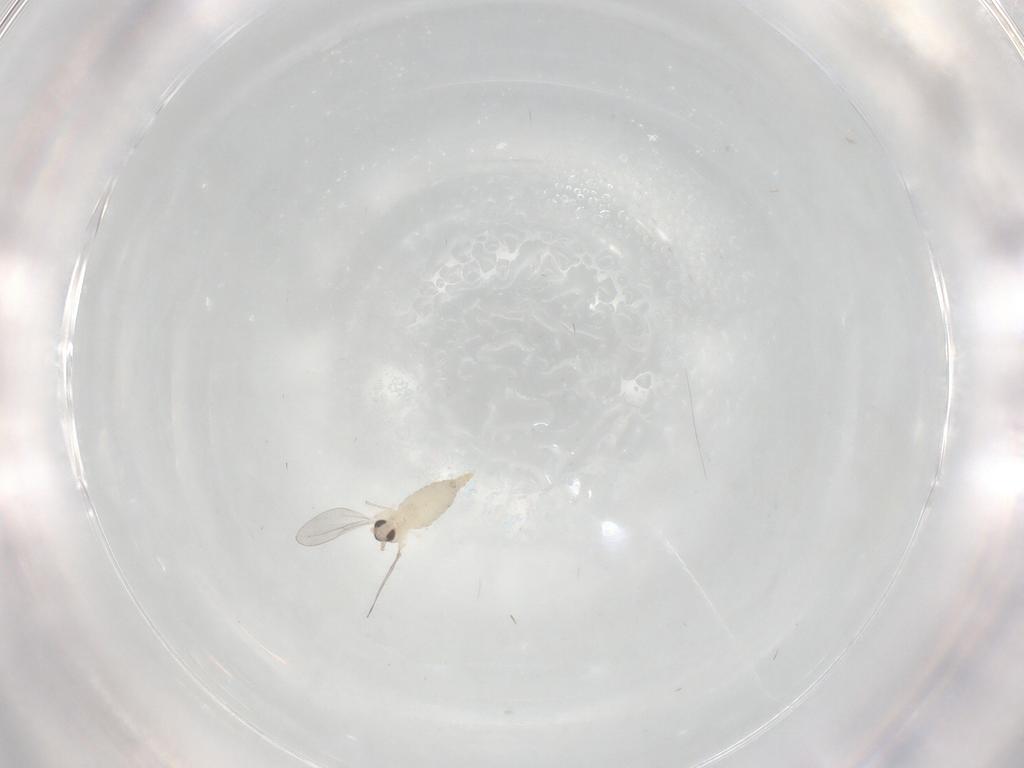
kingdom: Animalia
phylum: Arthropoda
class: Insecta
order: Diptera
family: Cecidomyiidae
